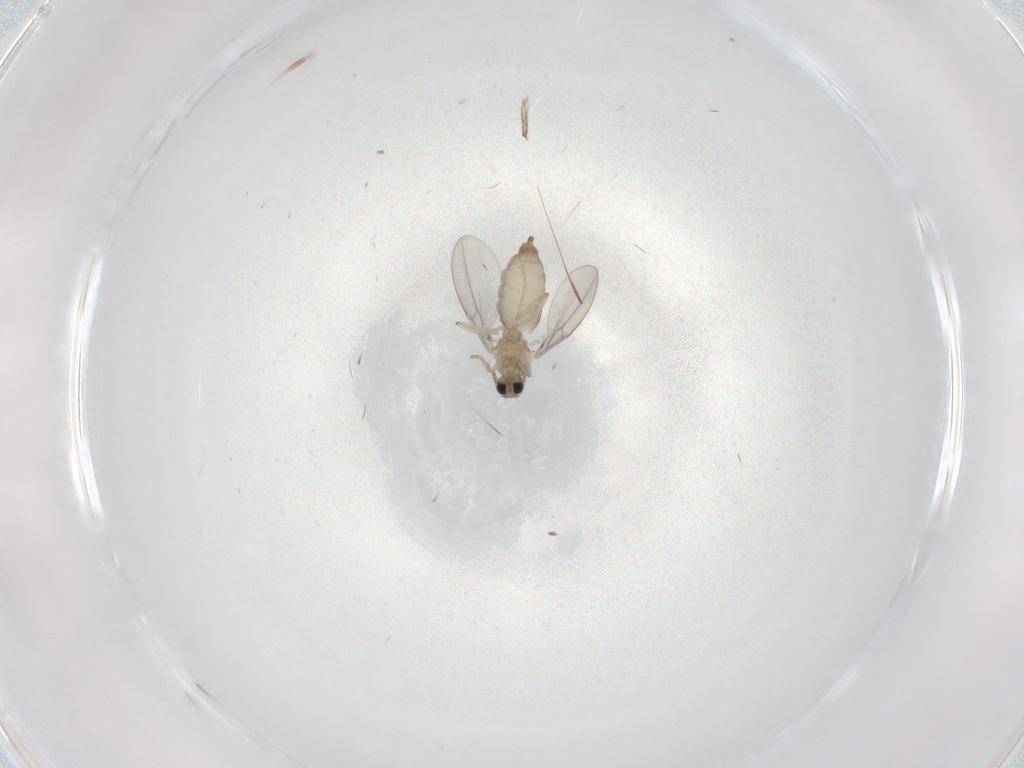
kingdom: Animalia
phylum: Arthropoda
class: Insecta
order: Diptera
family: Cecidomyiidae
